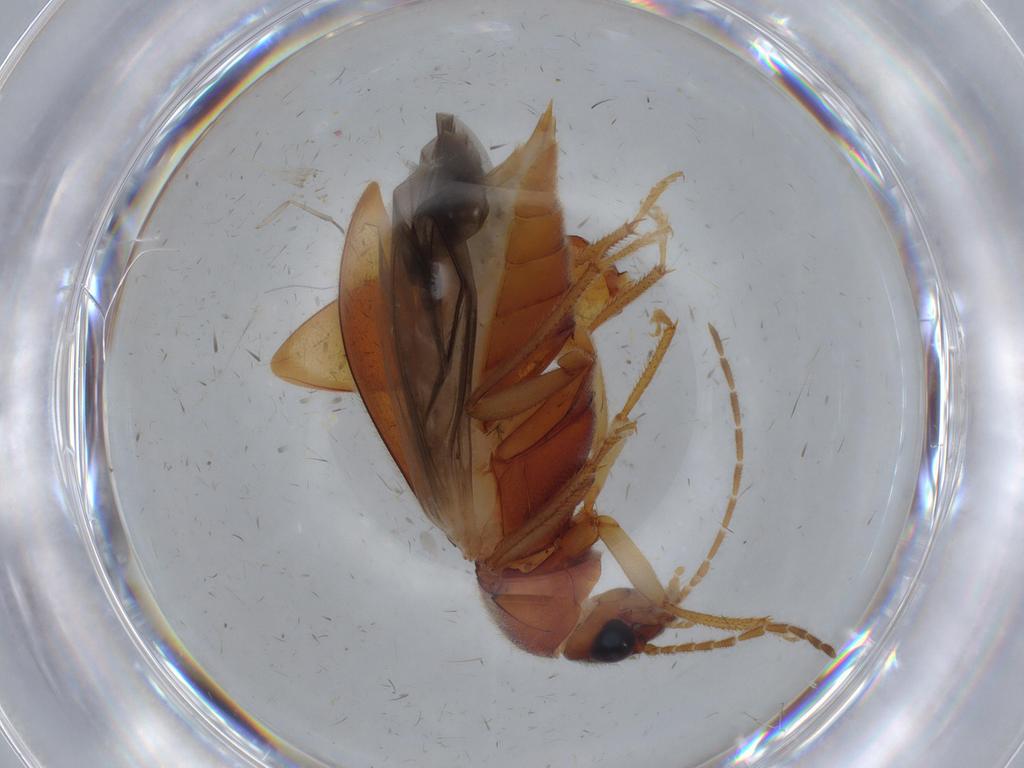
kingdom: Animalia
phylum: Arthropoda
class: Insecta
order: Coleoptera
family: Ptilodactylidae
